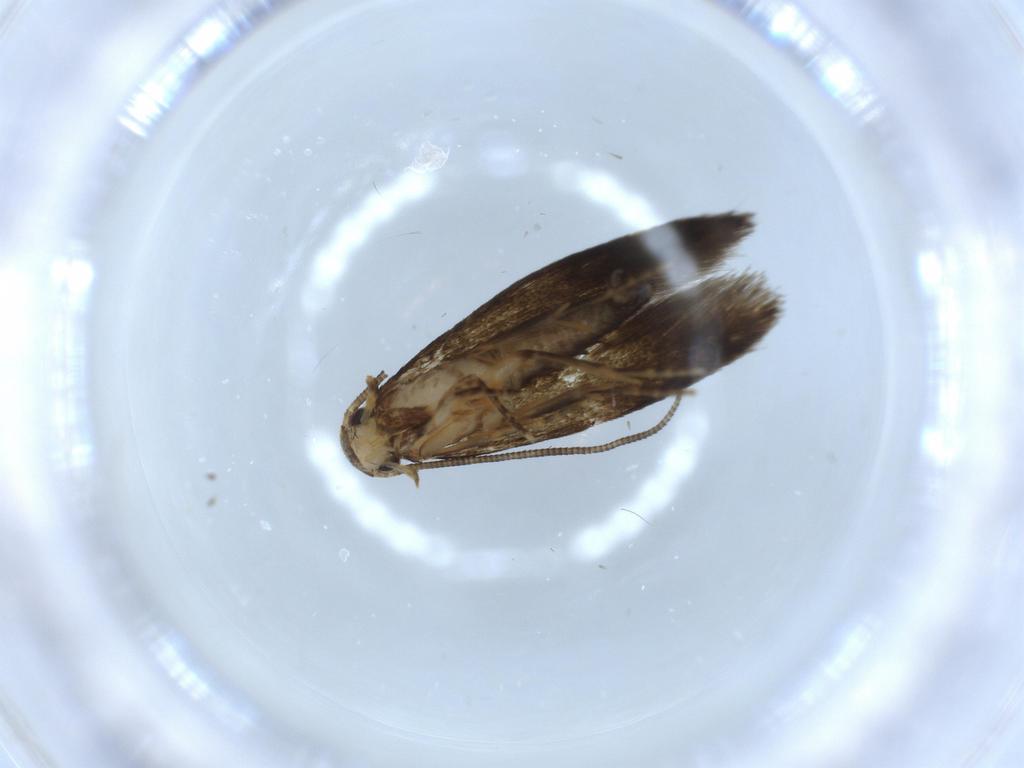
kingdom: Animalia
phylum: Arthropoda
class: Insecta
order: Lepidoptera
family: Tineidae
